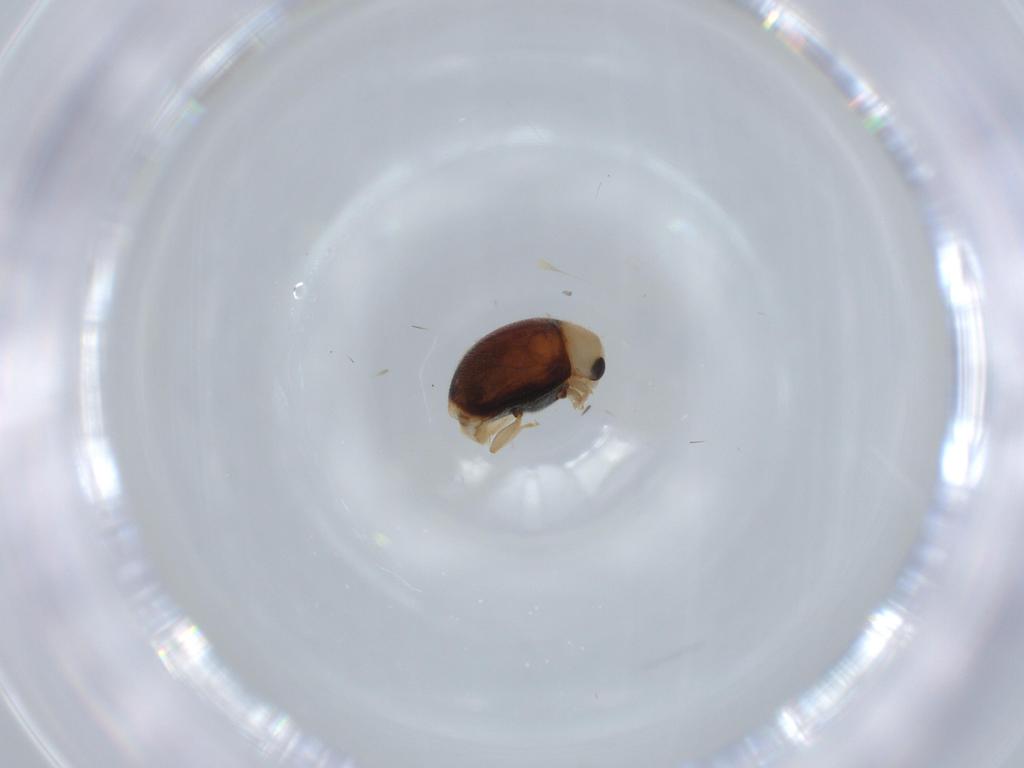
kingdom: Animalia
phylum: Arthropoda
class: Insecta
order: Coleoptera
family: Coccinellidae
